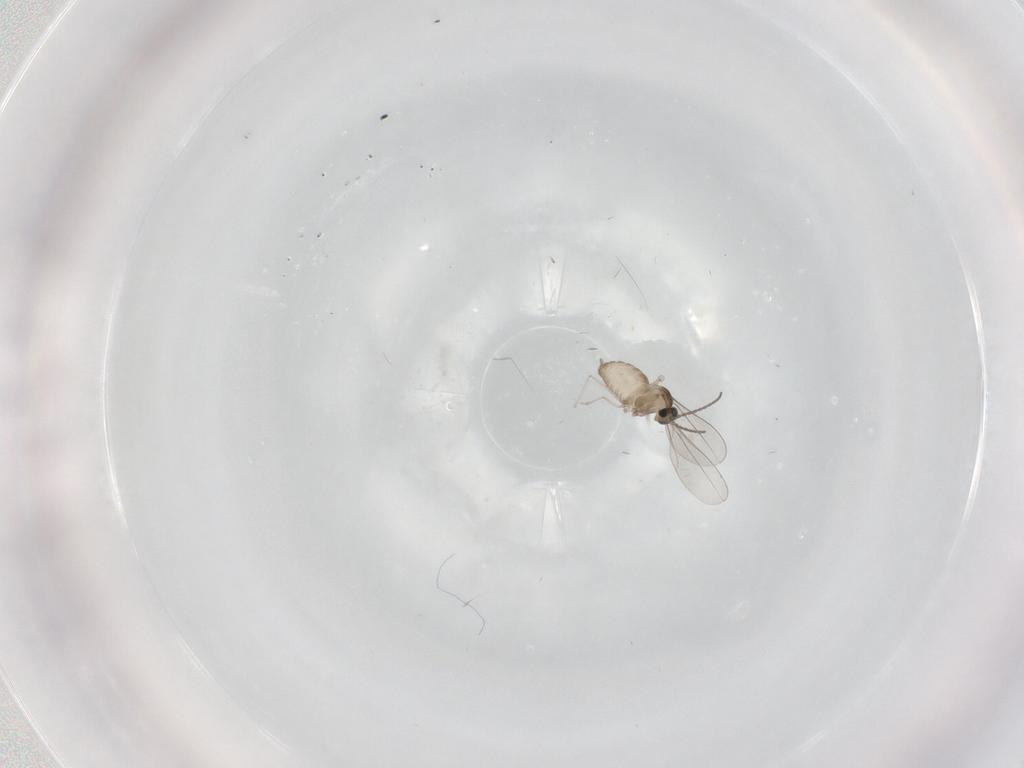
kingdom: Animalia
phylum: Arthropoda
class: Insecta
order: Diptera
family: Cecidomyiidae
